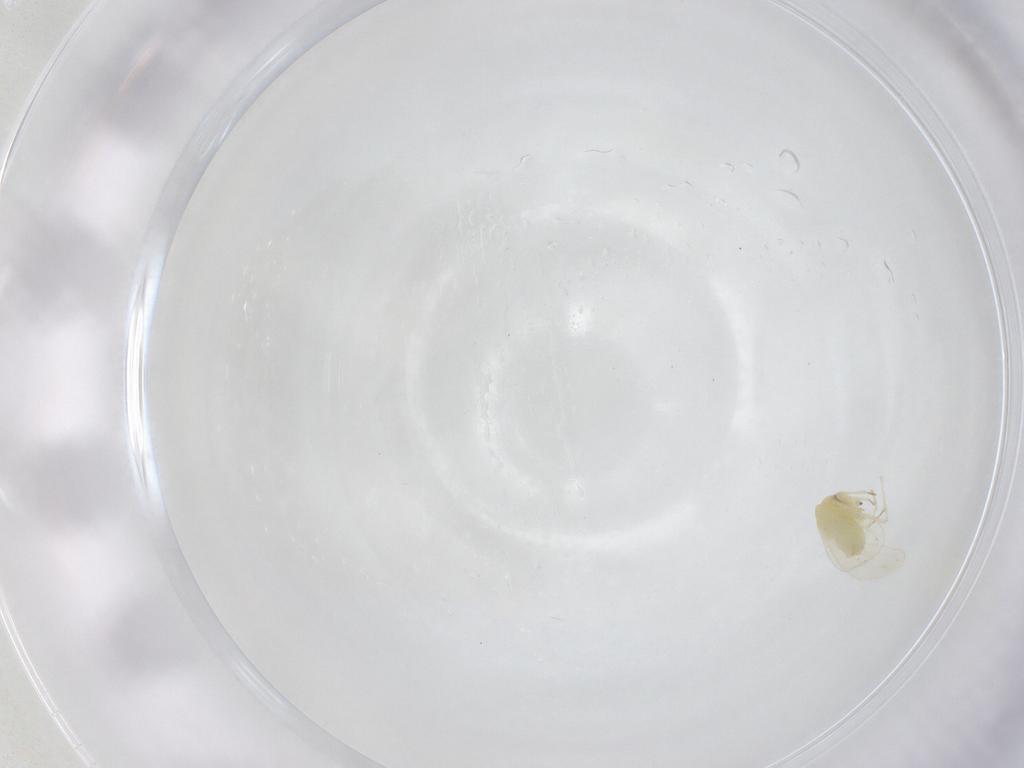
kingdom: Animalia
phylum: Arthropoda
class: Insecta
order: Hemiptera
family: Aleyrodidae
